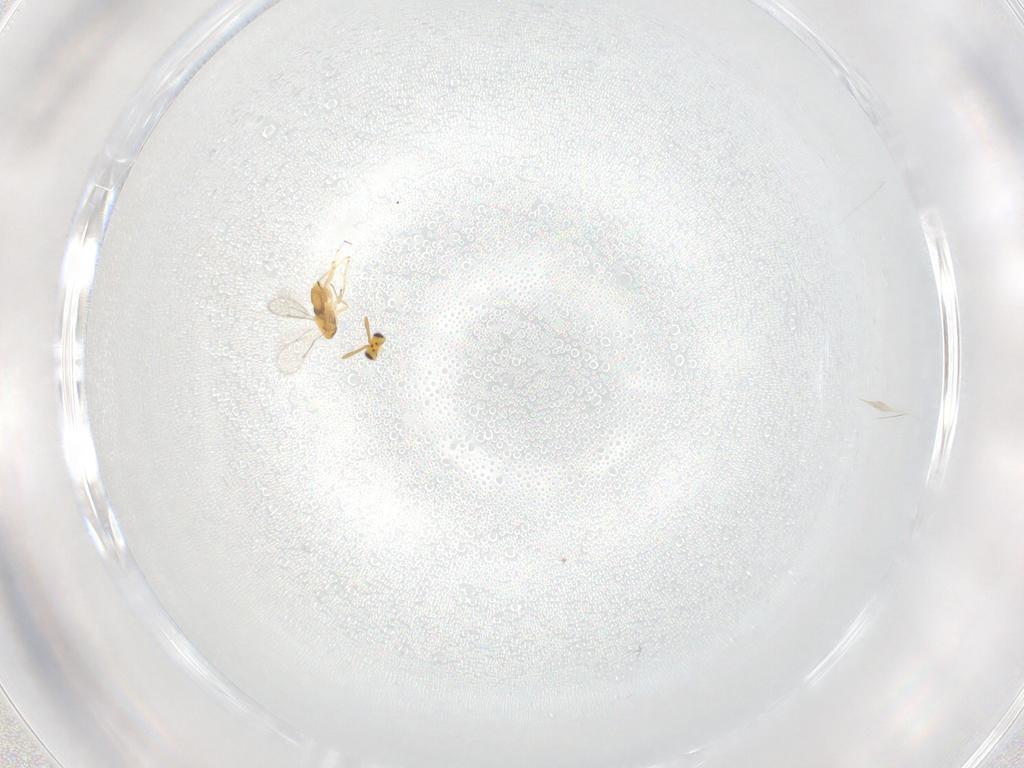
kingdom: Animalia
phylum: Arthropoda
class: Insecta
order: Hymenoptera
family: Aphelinidae
